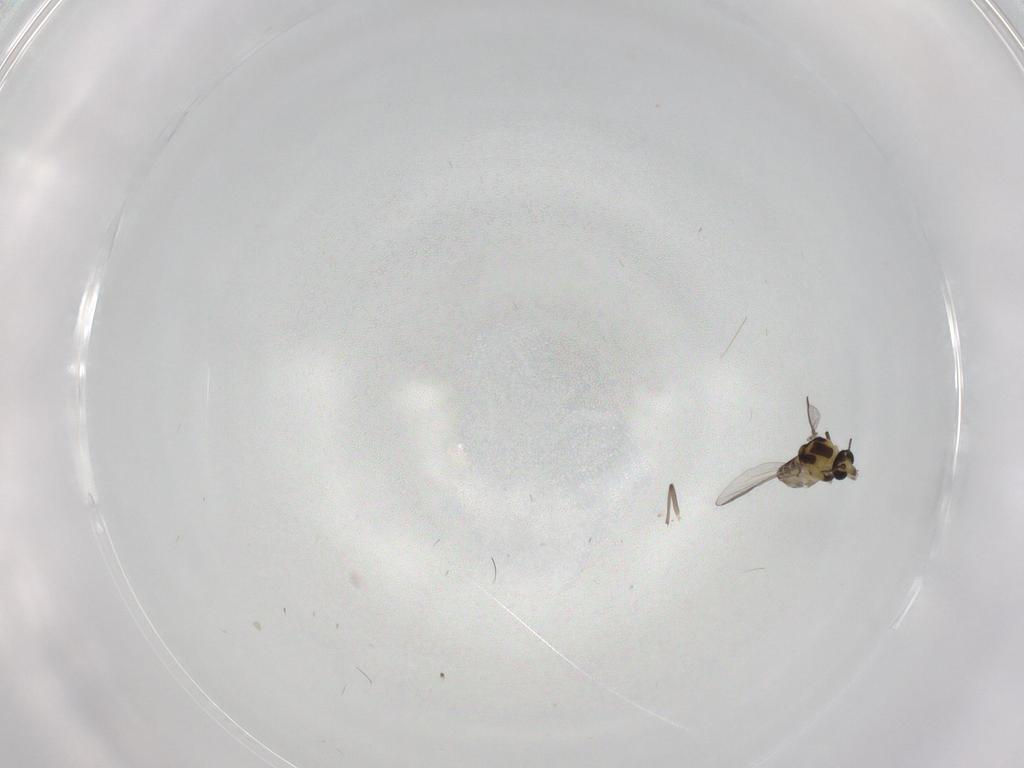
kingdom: Animalia
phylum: Arthropoda
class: Insecta
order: Diptera
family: Chironomidae
